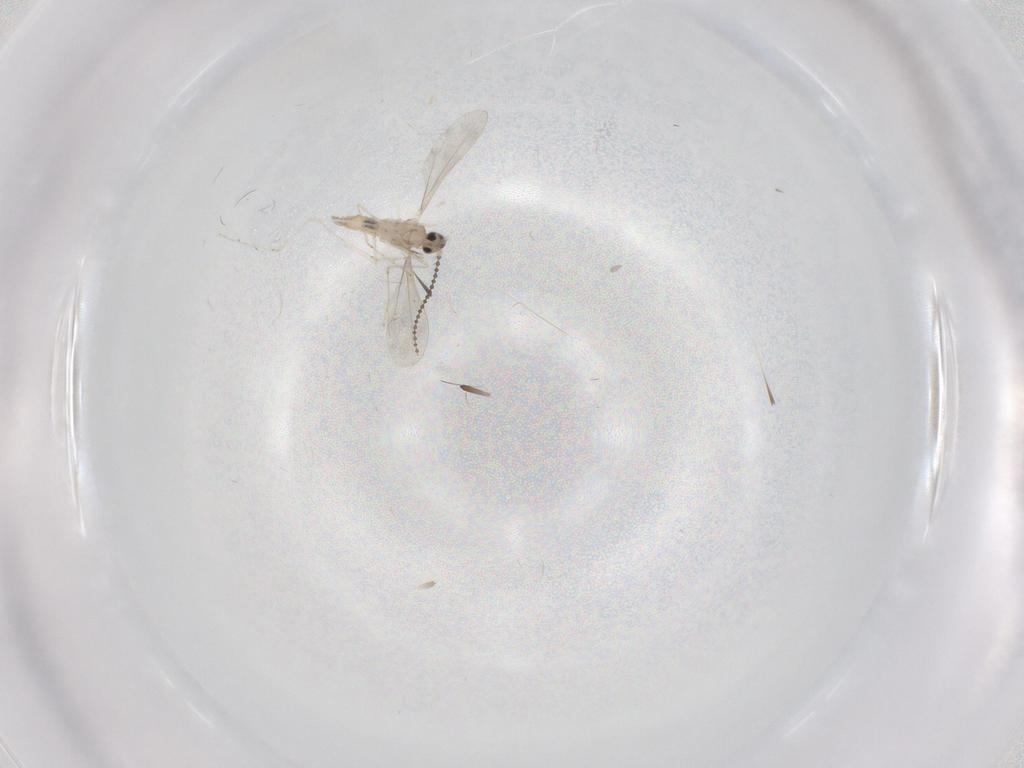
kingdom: Animalia
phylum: Arthropoda
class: Insecta
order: Diptera
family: Cecidomyiidae
